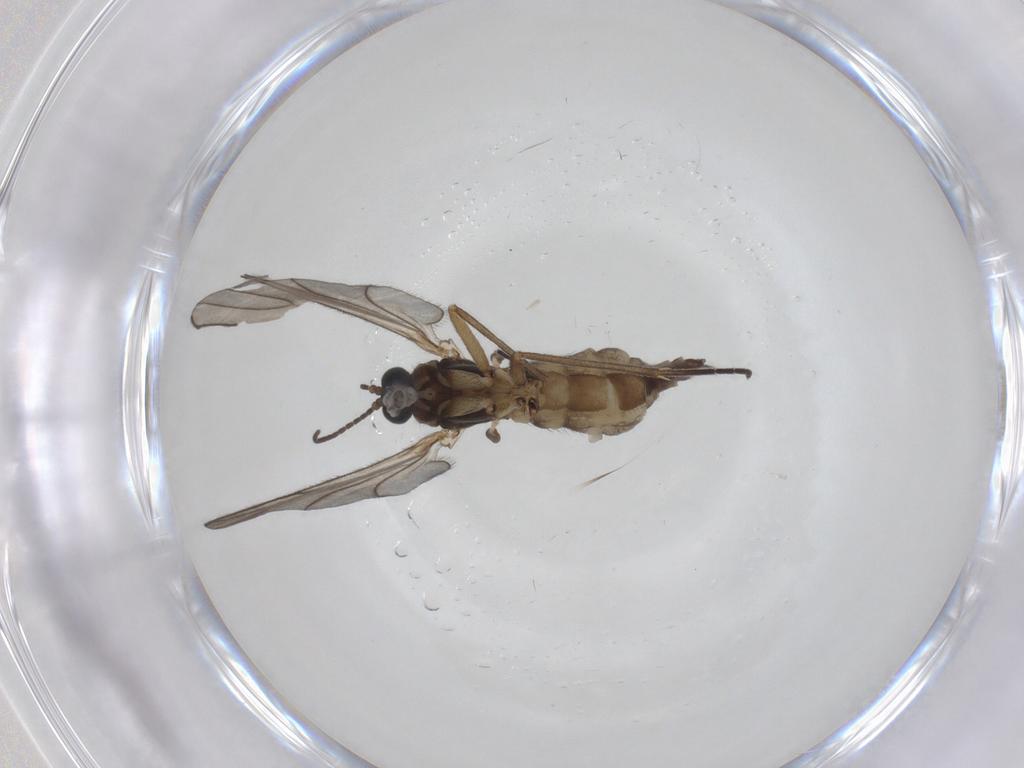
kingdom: Animalia
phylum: Arthropoda
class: Insecta
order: Diptera
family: Sciaridae
